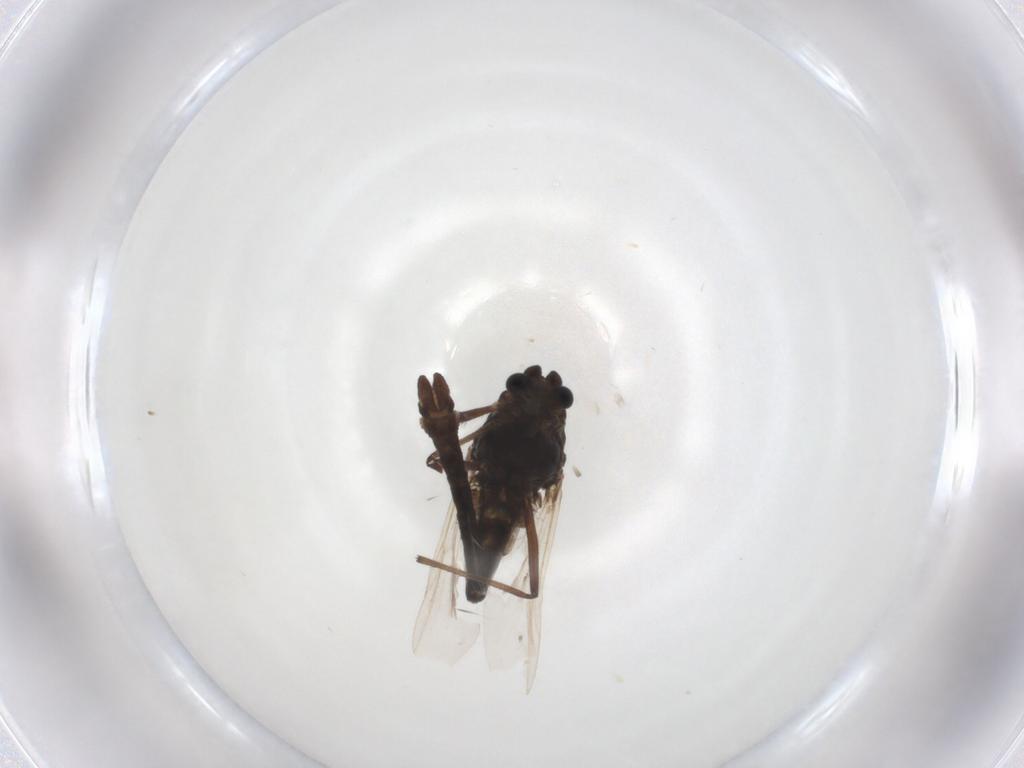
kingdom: Animalia
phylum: Arthropoda
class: Insecta
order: Diptera
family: Chironomidae
